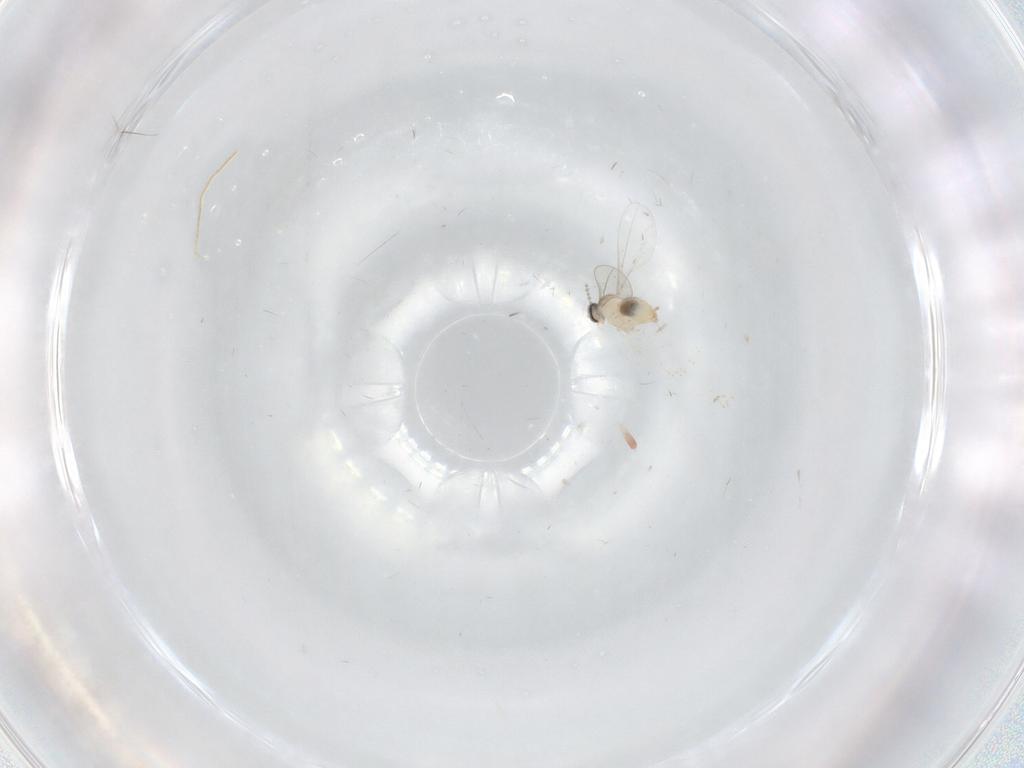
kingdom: Animalia
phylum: Arthropoda
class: Insecta
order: Diptera
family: Cecidomyiidae
